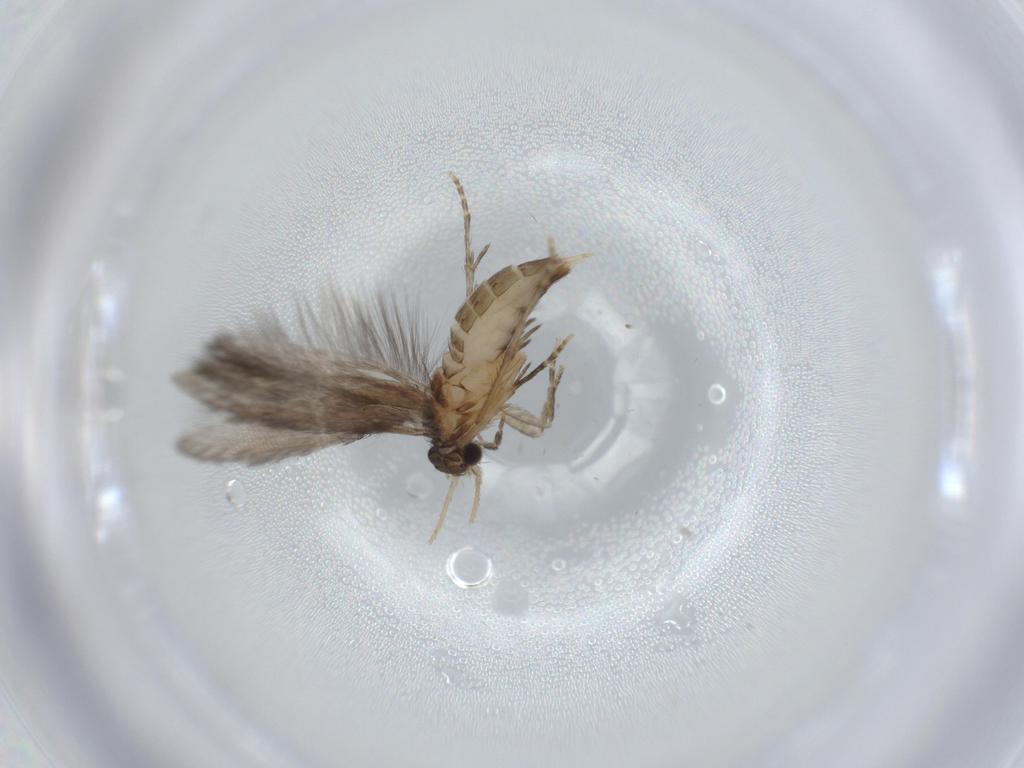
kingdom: Animalia
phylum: Arthropoda
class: Insecta
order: Trichoptera
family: Hydroptilidae
